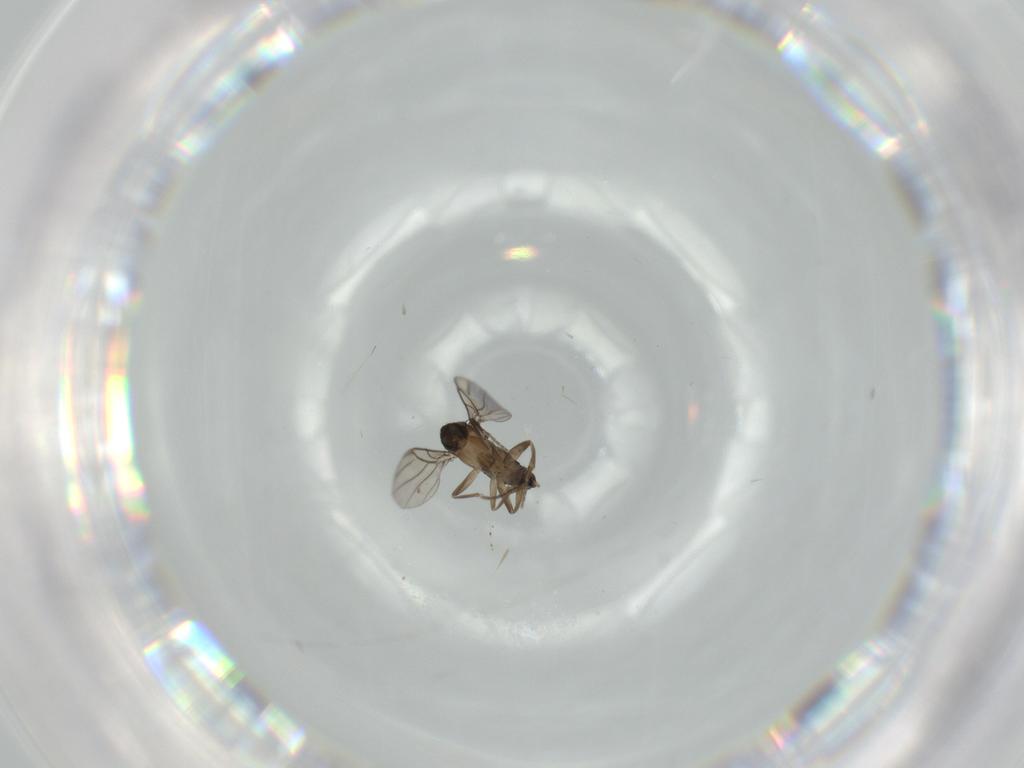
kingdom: Animalia
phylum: Arthropoda
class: Insecta
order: Diptera
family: Phoridae
